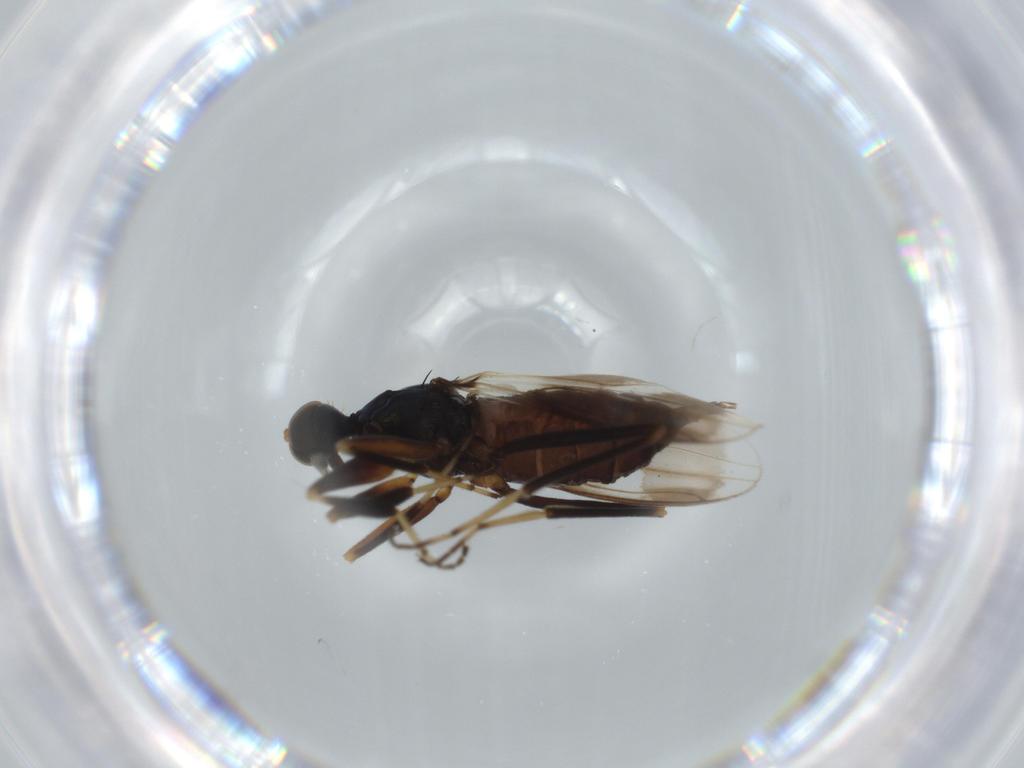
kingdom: Animalia
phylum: Arthropoda
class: Insecta
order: Diptera
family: Hybotidae
